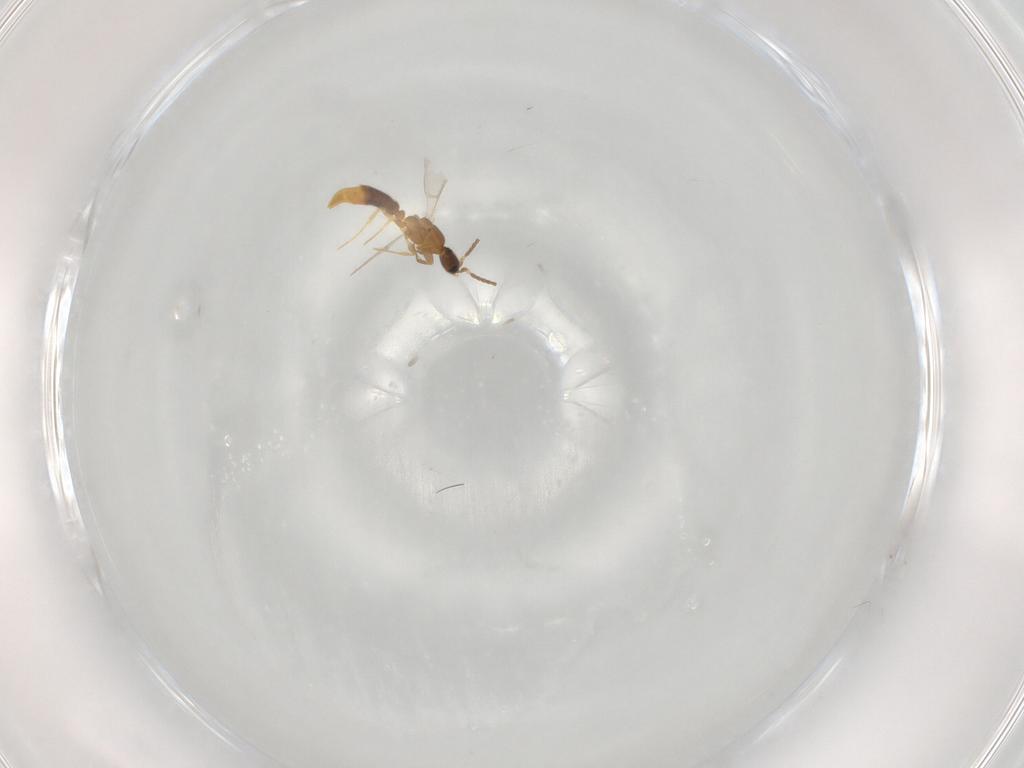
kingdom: Animalia
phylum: Arthropoda
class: Insecta
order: Hymenoptera
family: Formicidae
